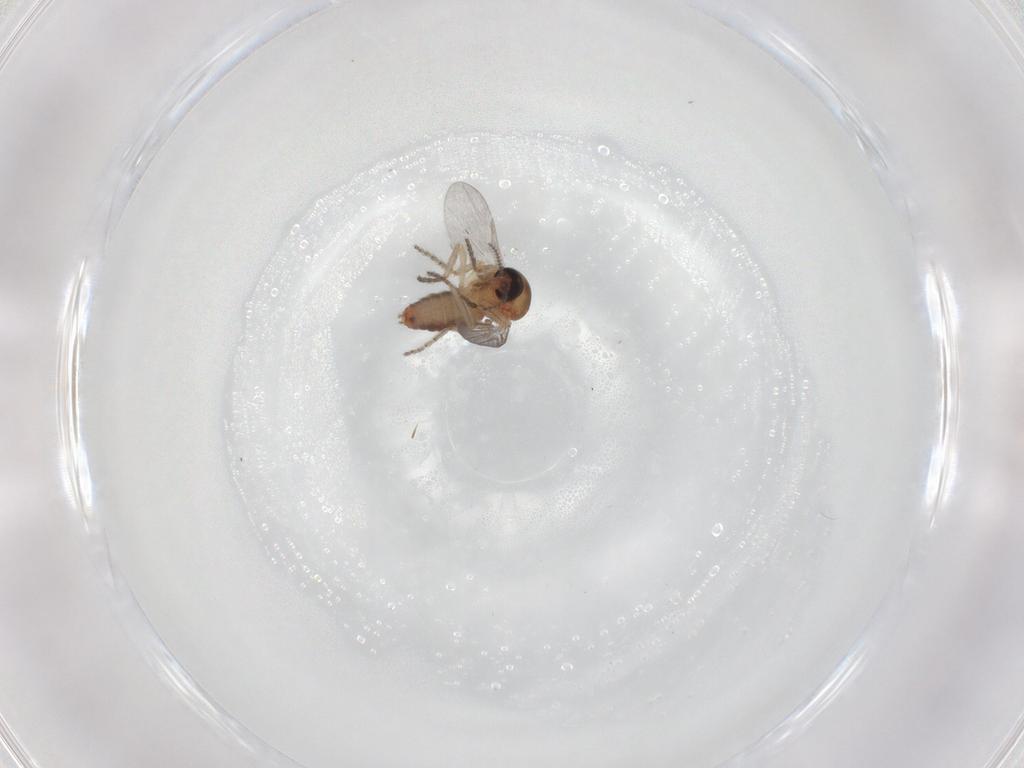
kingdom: Animalia
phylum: Arthropoda
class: Insecta
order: Diptera
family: Ceratopogonidae
